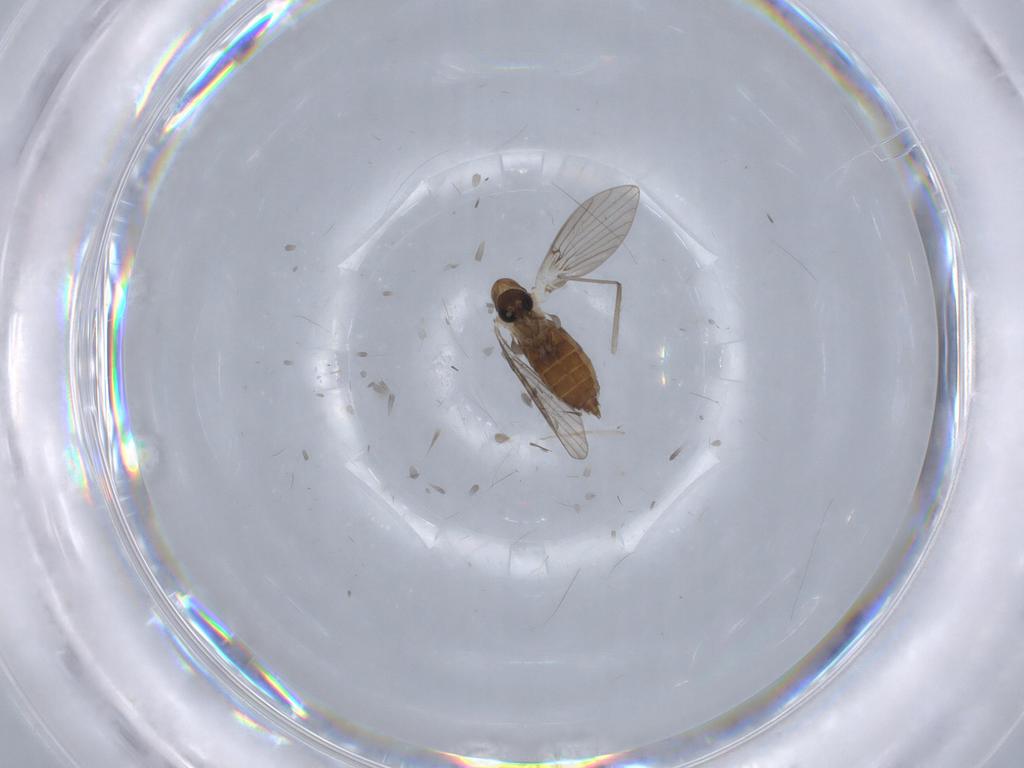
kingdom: Animalia
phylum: Arthropoda
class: Insecta
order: Diptera
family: Psychodidae
